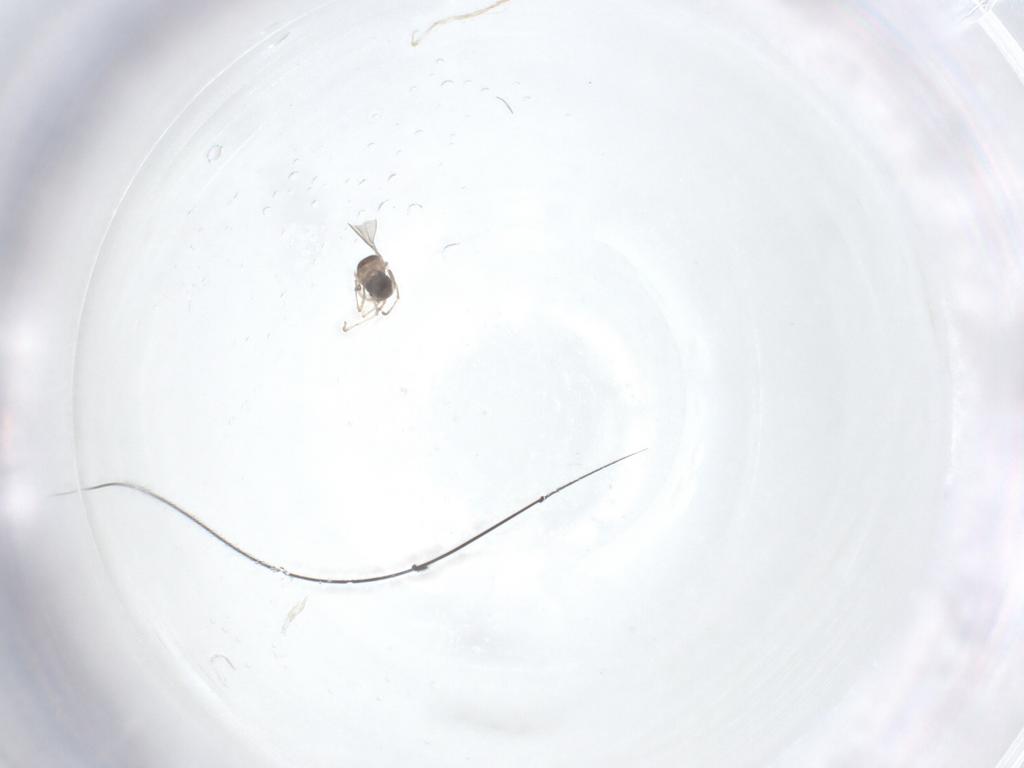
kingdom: Animalia
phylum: Arthropoda
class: Insecta
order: Diptera
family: Cecidomyiidae
